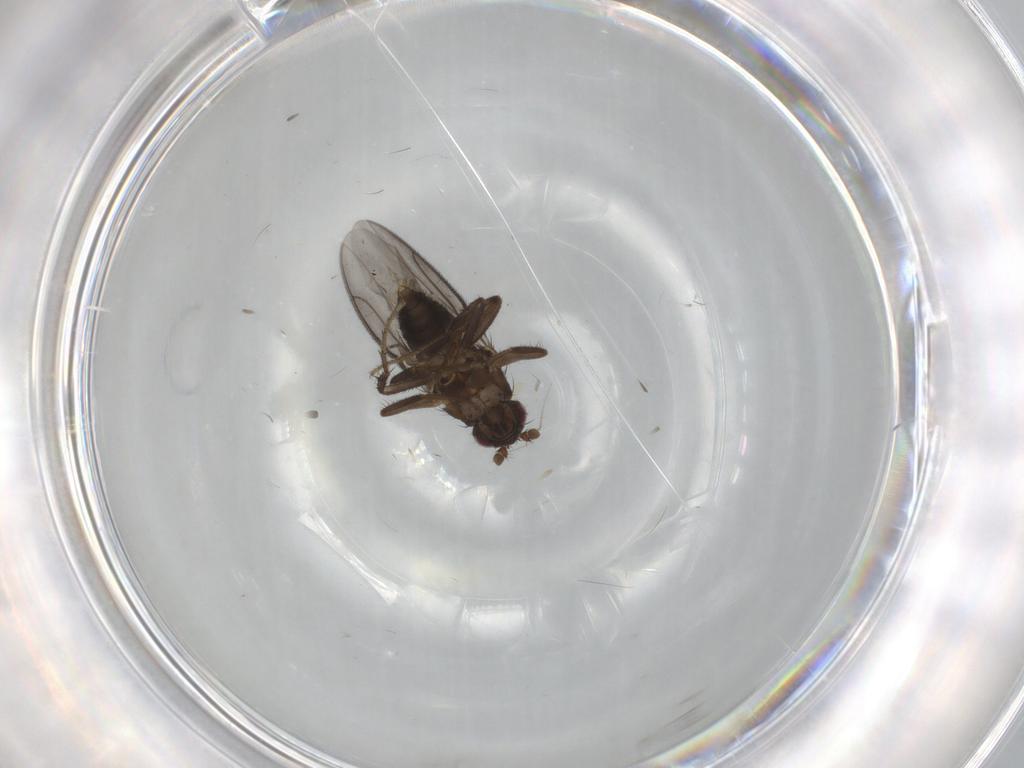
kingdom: Animalia
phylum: Arthropoda
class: Insecta
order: Diptera
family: Sphaeroceridae
